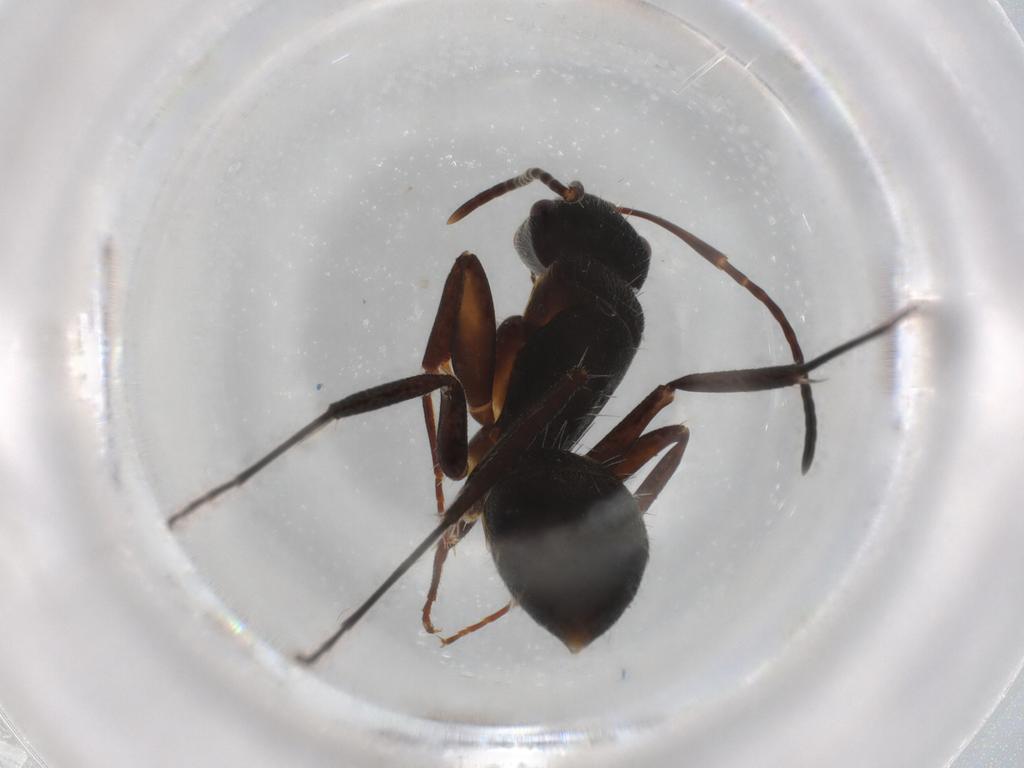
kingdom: Animalia
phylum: Arthropoda
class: Insecta
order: Hymenoptera
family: Formicidae
